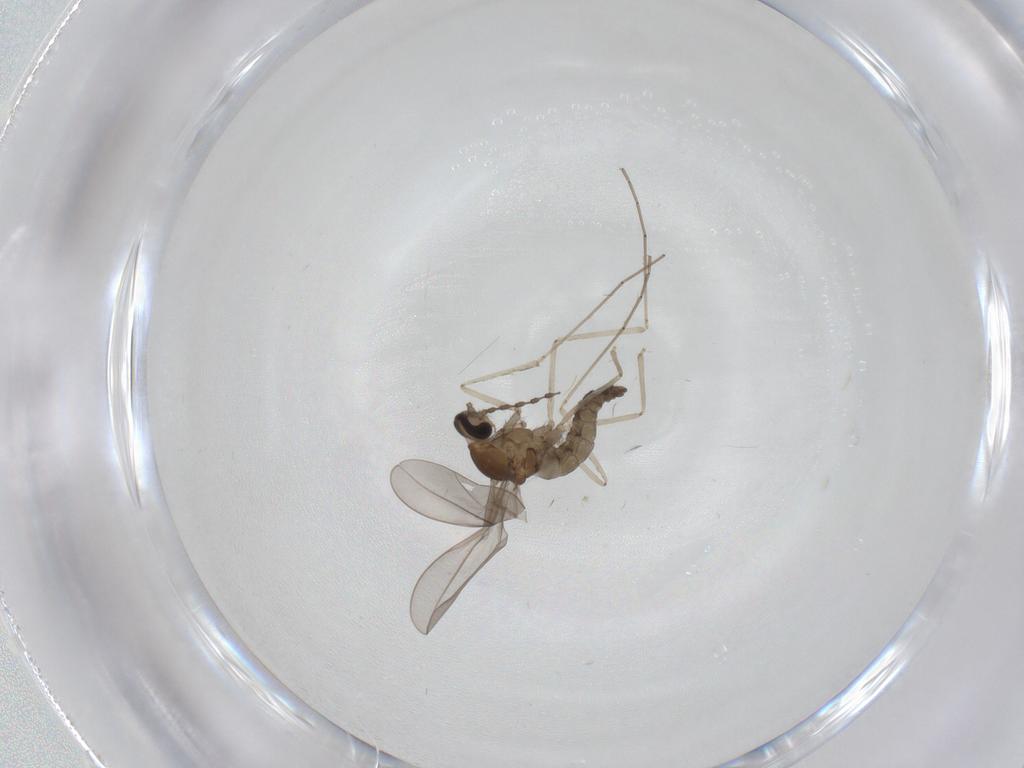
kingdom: Animalia
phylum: Arthropoda
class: Insecta
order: Diptera
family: Cecidomyiidae
